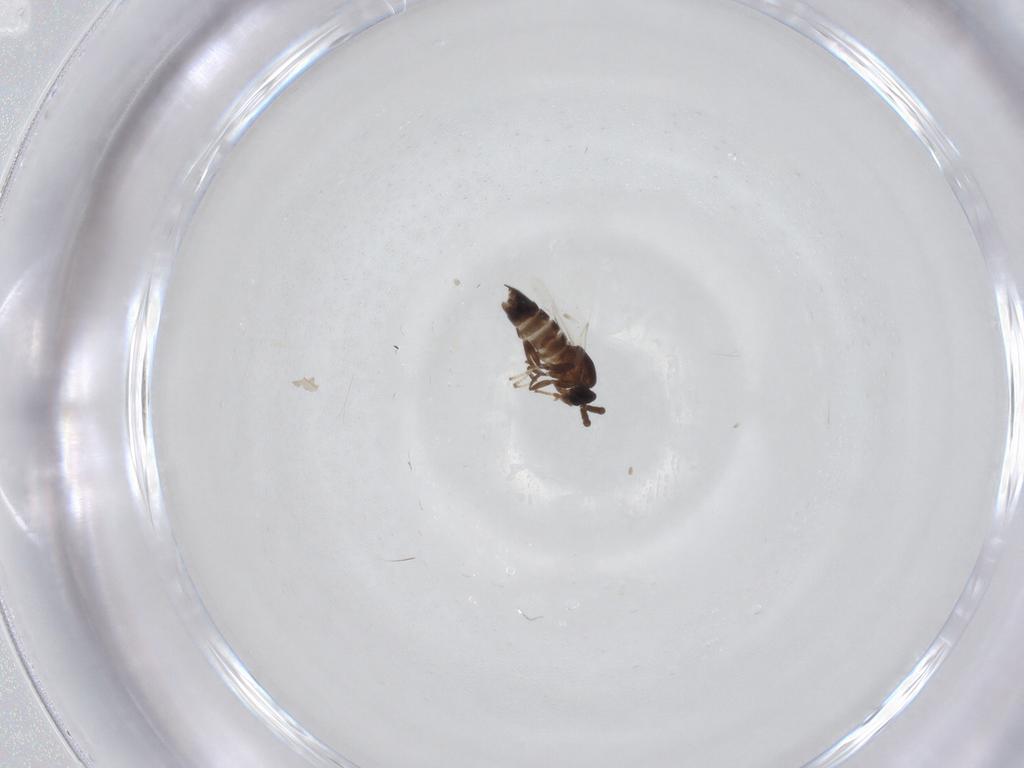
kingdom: Animalia
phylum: Arthropoda
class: Insecta
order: Diptera
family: Scatopsidae
